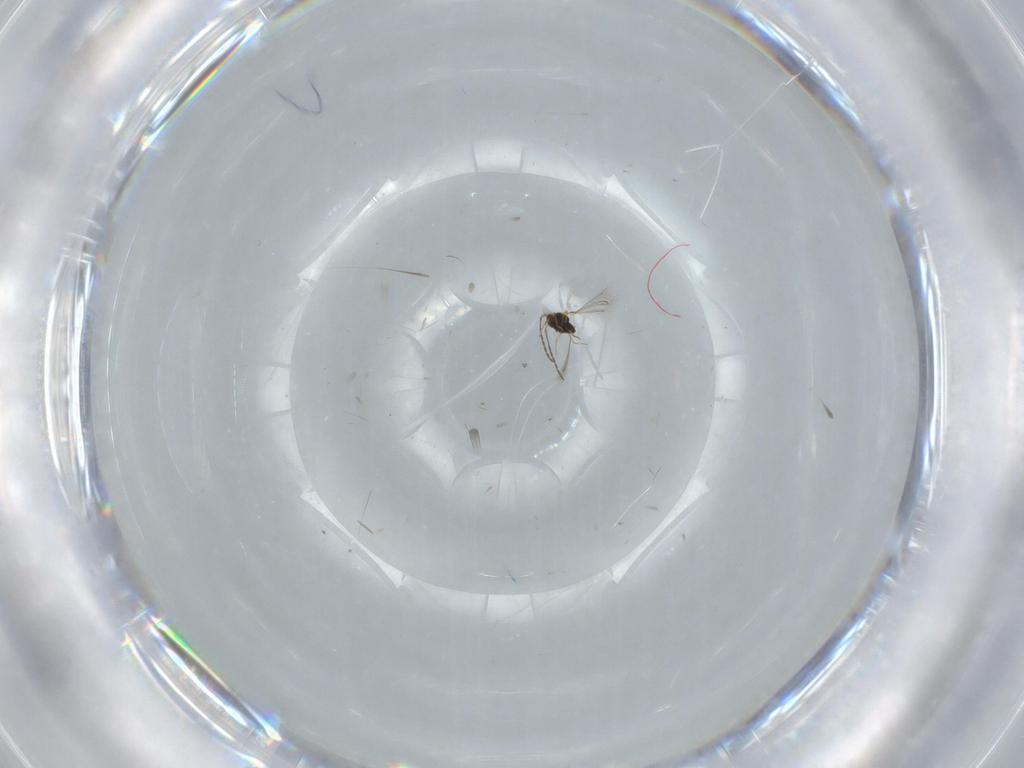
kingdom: Animalia
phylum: Arthropoda
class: Insecta
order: Hymenoptera
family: Mymaridae
